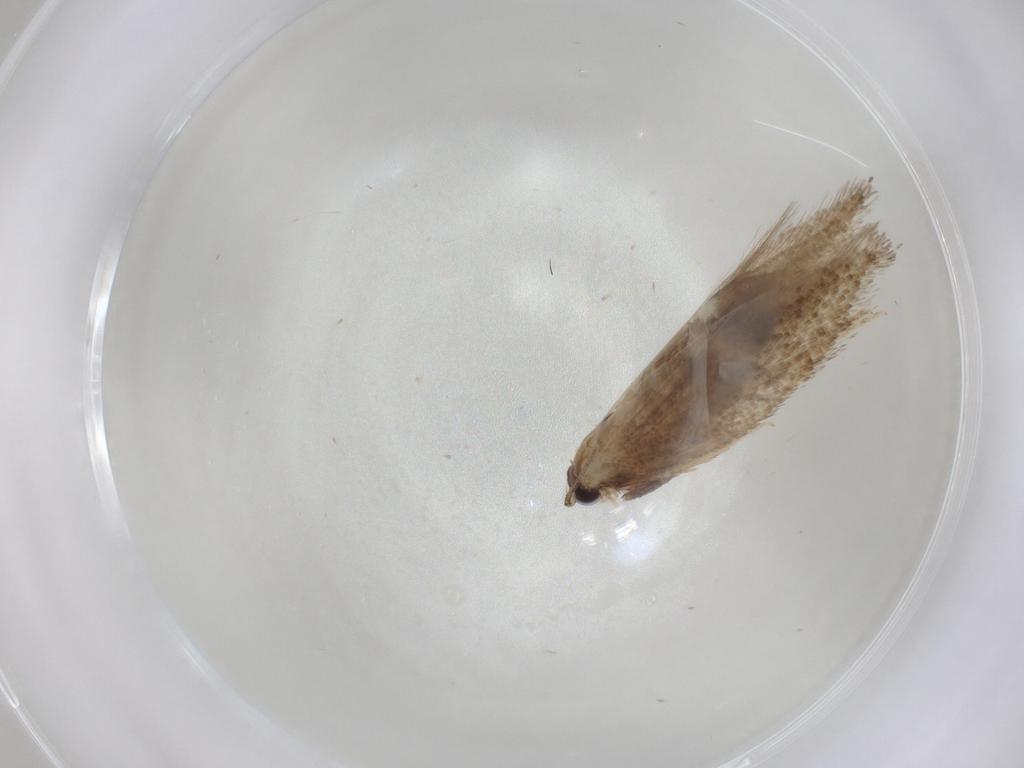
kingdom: Animalia
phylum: Arthropoda
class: Insecta
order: Lepidoptera
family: Nepticulidae
